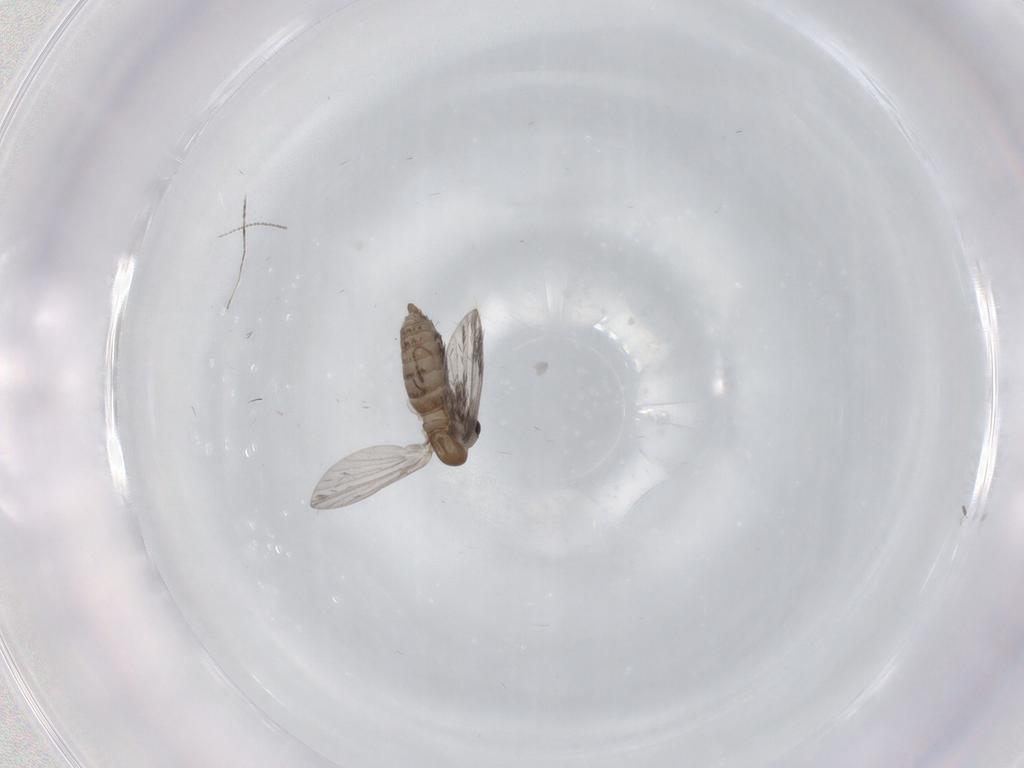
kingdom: Animalia
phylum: Arthropoda
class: Insecta
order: Diptera
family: Cecidomyiidae
